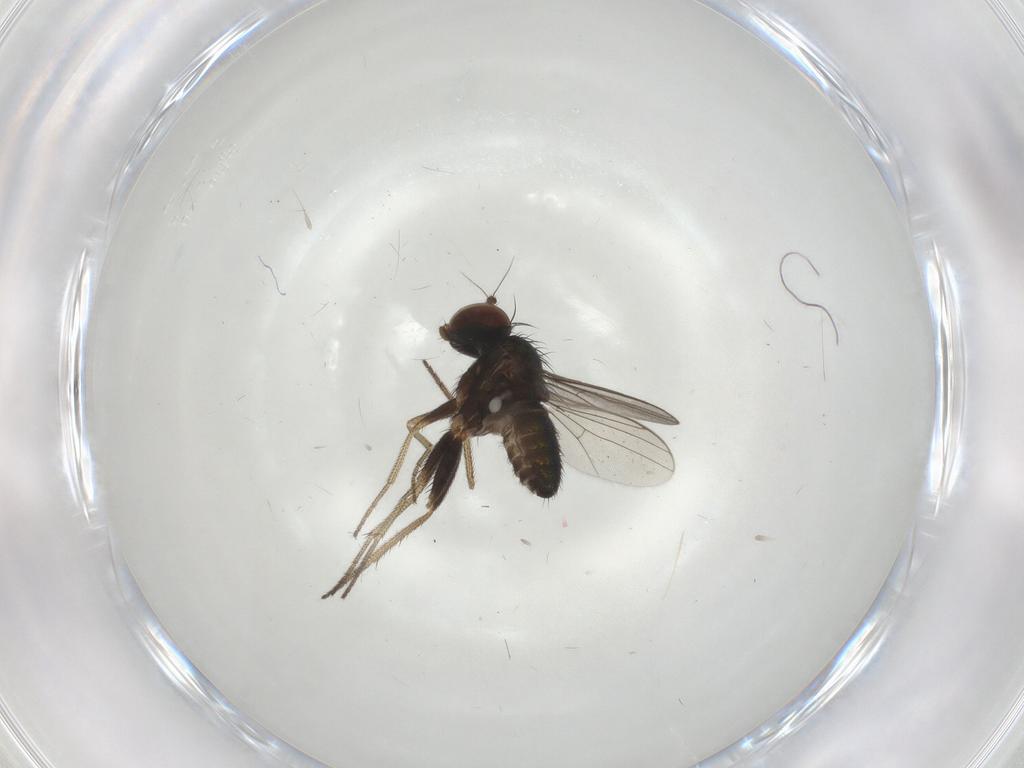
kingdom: Animalia
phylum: Arthropoda
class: Insecta
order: Diptera
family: Dolichopodidae
